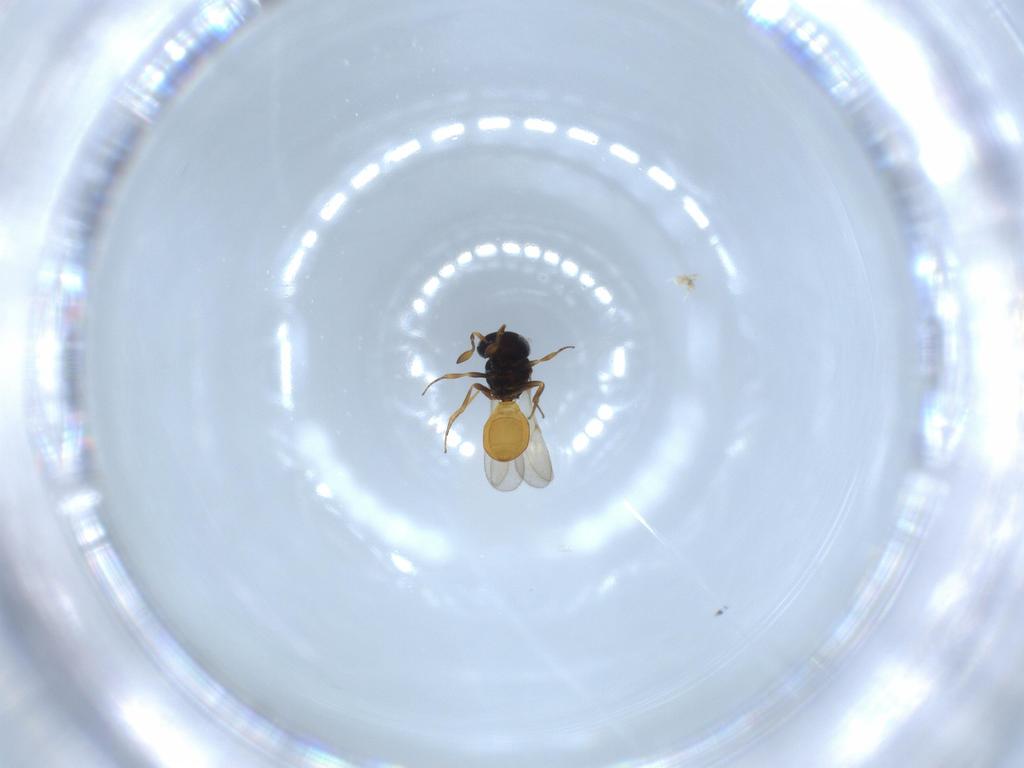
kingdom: Animalia
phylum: Arthropoda
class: Insecta
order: Hymenoptera
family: Scelionidae
